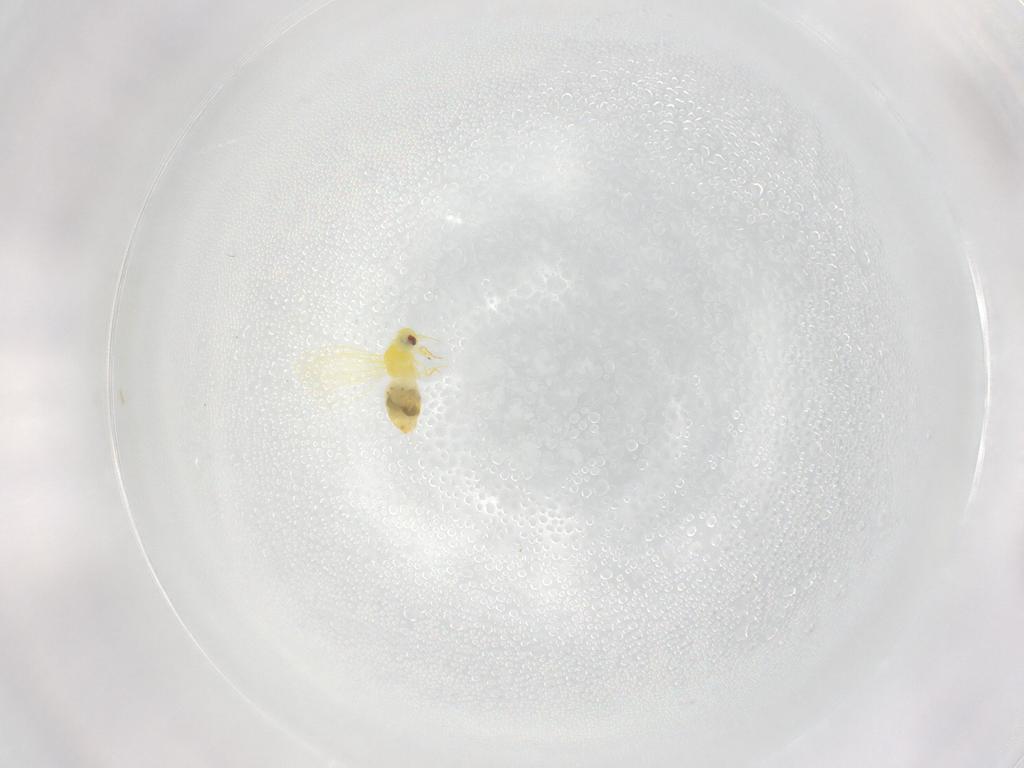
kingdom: Animalia
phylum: Arthropoda
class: Insecta
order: Hemiptera
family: Aleyrodidae
